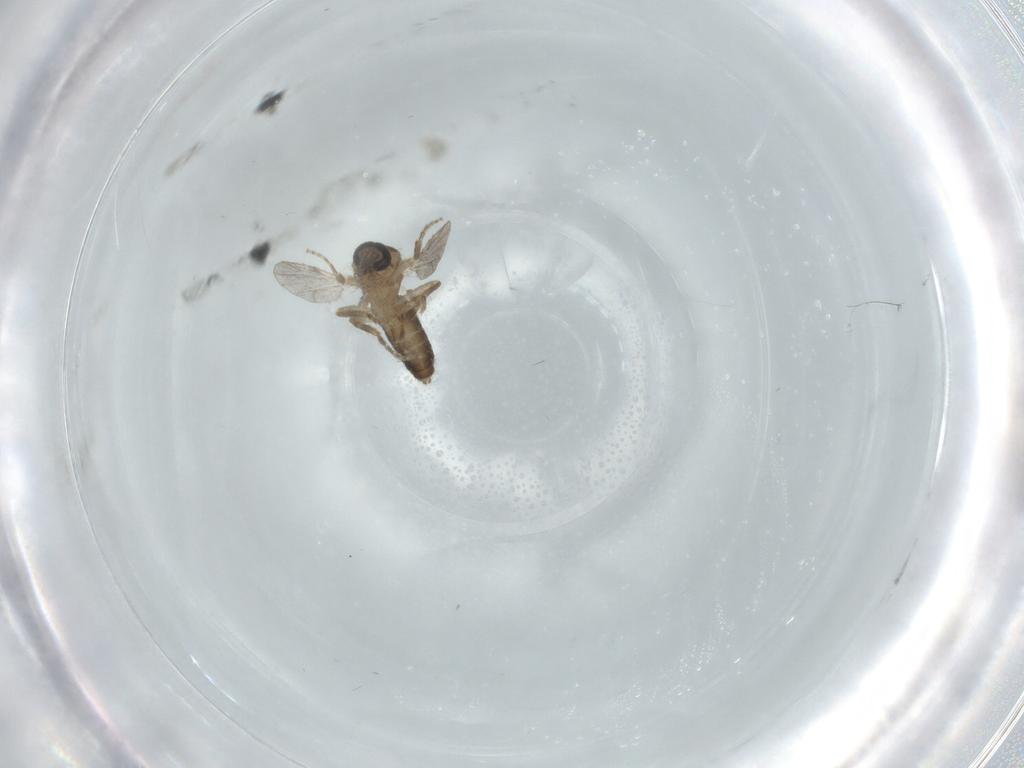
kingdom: Animalia
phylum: Arthropoda
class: Insecta
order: Diptera
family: Ceratopogonidae
